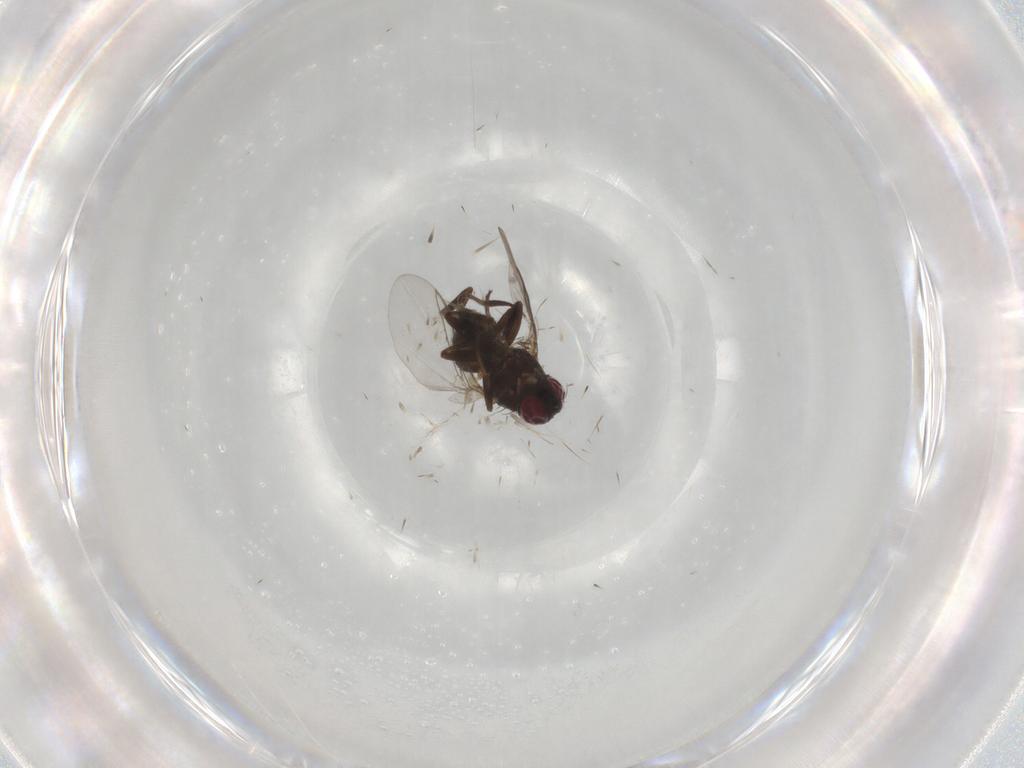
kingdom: Animalia
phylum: Arthropoda
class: Insecta
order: Diptera
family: Agromyzidae
